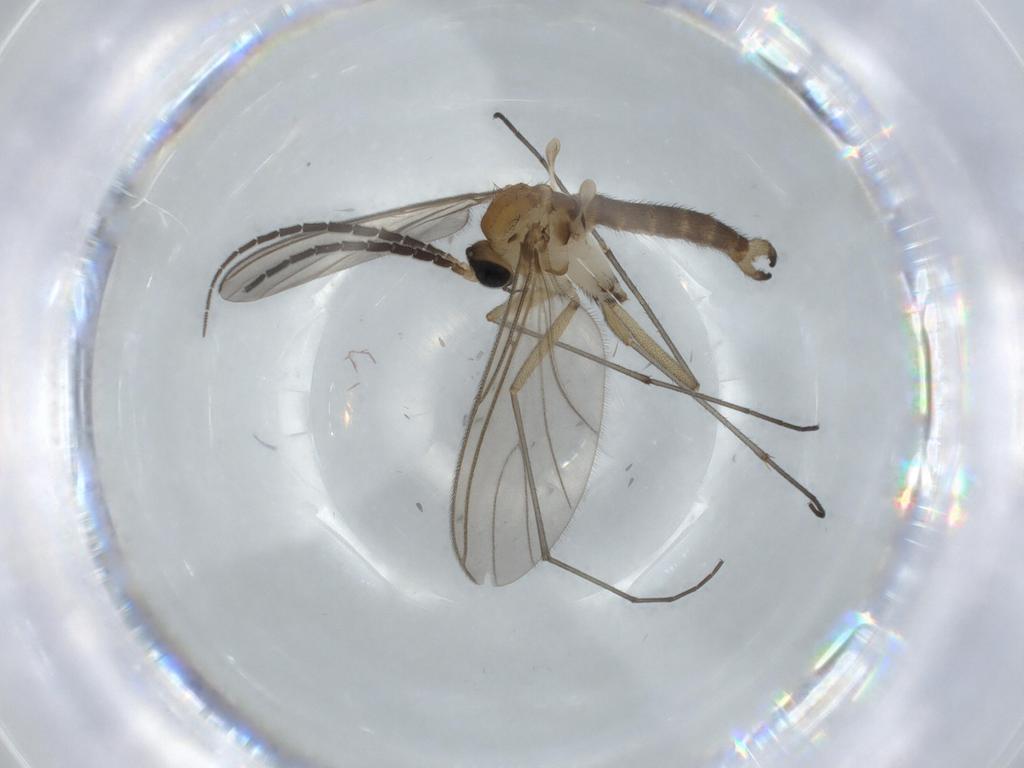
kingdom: Animalia
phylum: Arthropoda
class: Insecta
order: Diptera
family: Sciaridae
